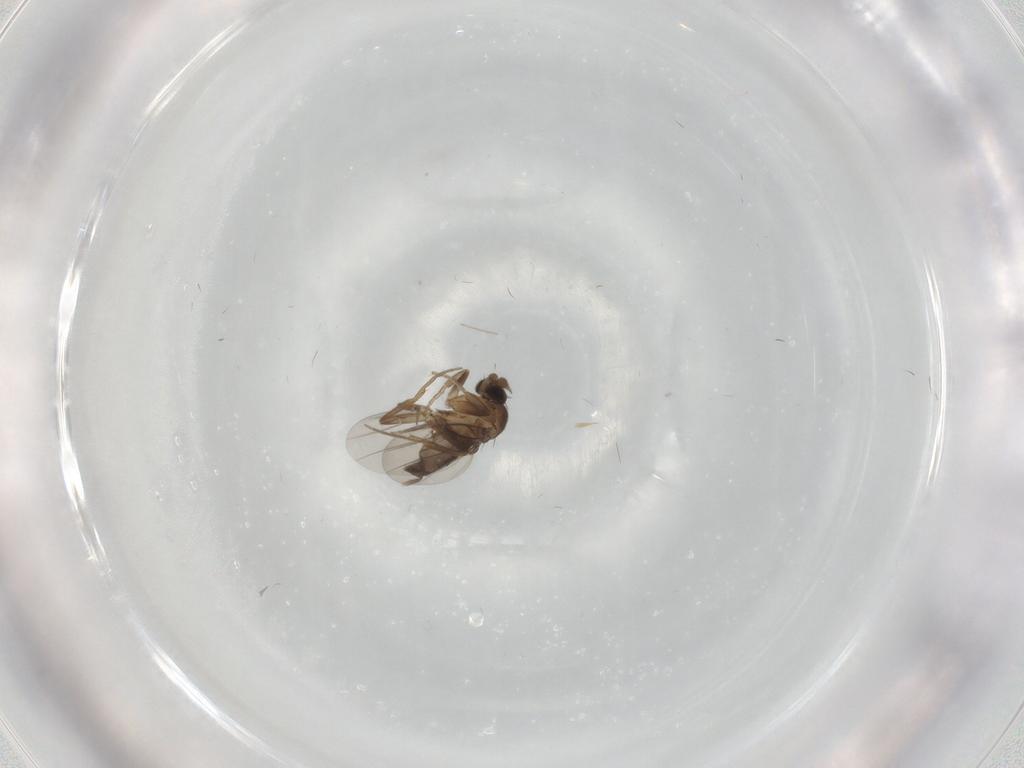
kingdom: Animalia
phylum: Arthropoda
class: Insecta
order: Diptera
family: Phoridae
